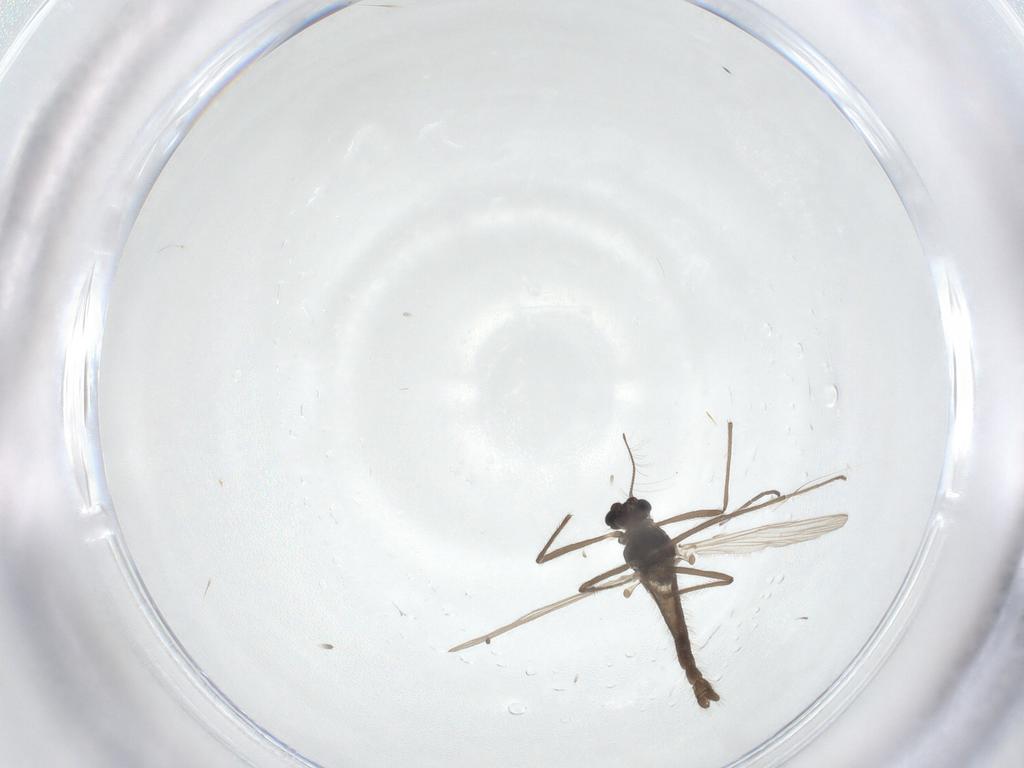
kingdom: Animalia
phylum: Arthropoda
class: Insecta
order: Diptera
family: Chironomidae
